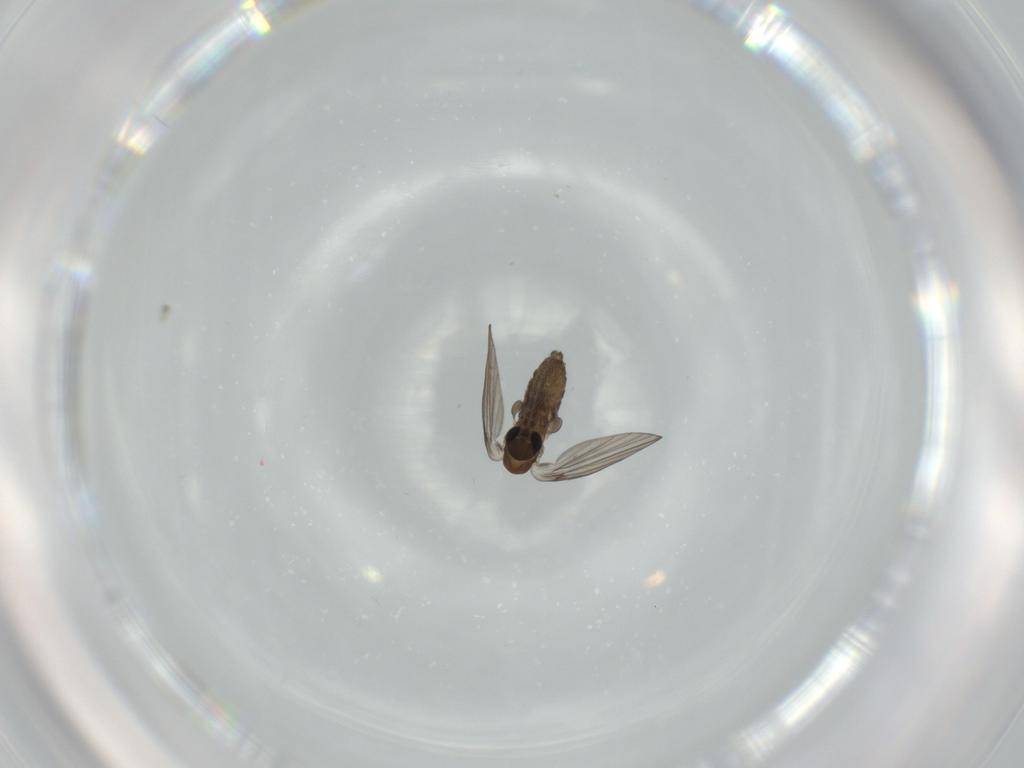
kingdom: Animalia
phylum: Arthropoda
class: Insecta
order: Diptera
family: Psychodidae
